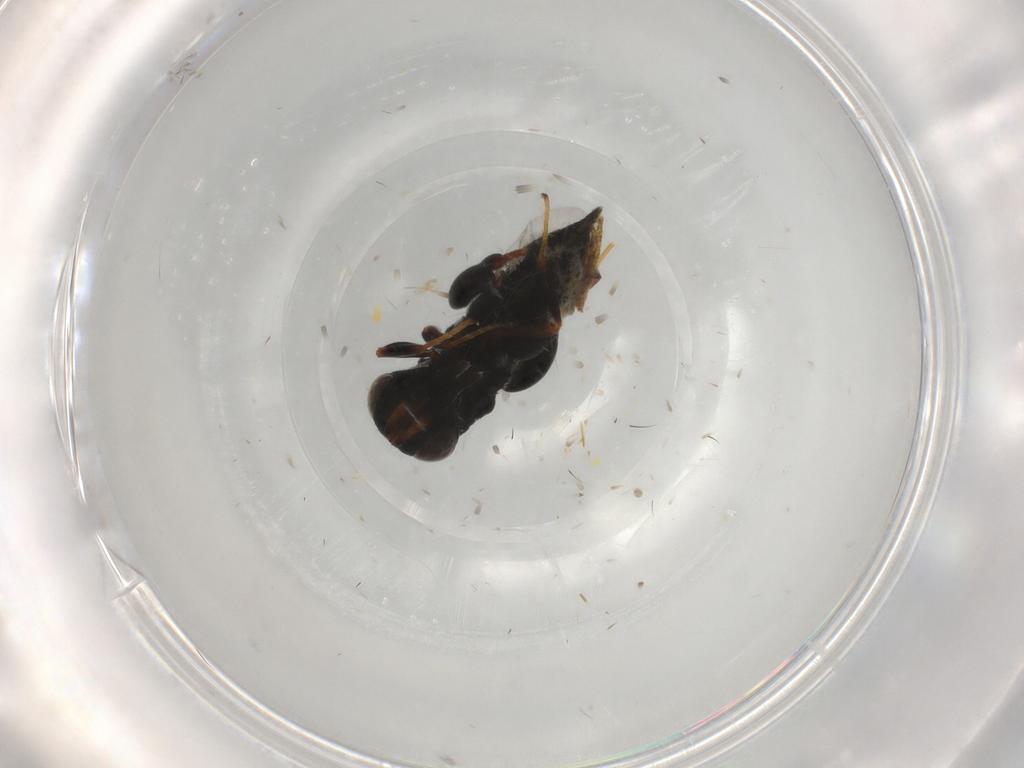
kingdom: Animalia
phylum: Arthropoda
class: Insecta
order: Hymenoptera
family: Chalcididae
